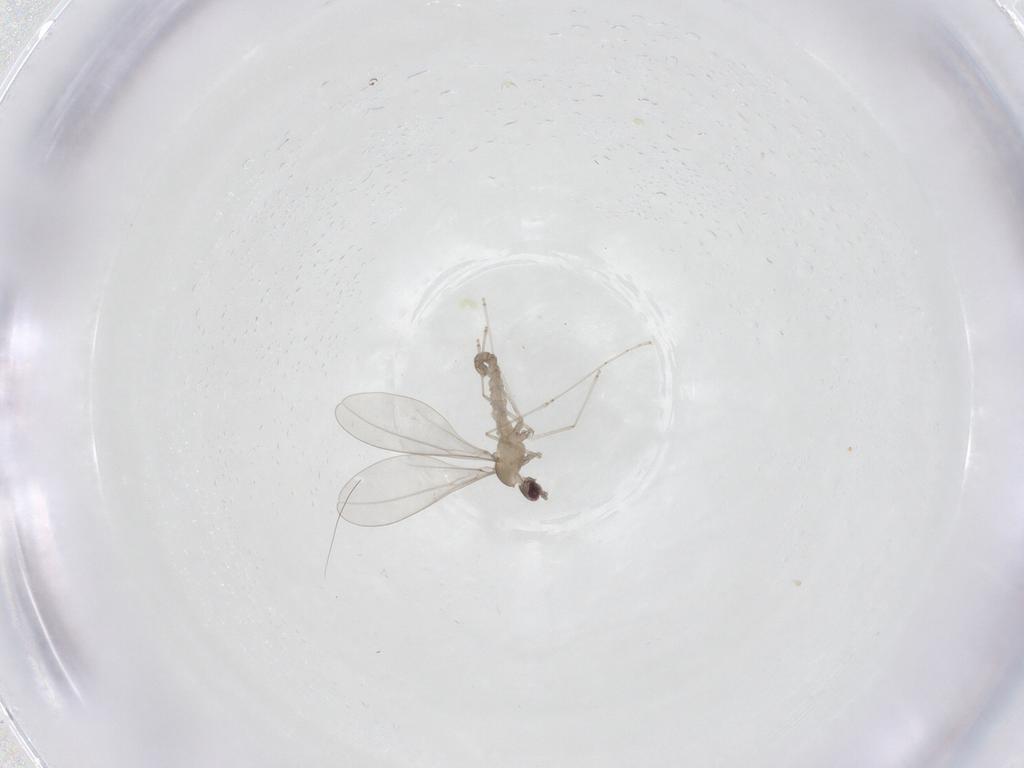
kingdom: Animalia
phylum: Arthropoda
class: Insecta
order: Diptera
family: Cecidomyiidae
